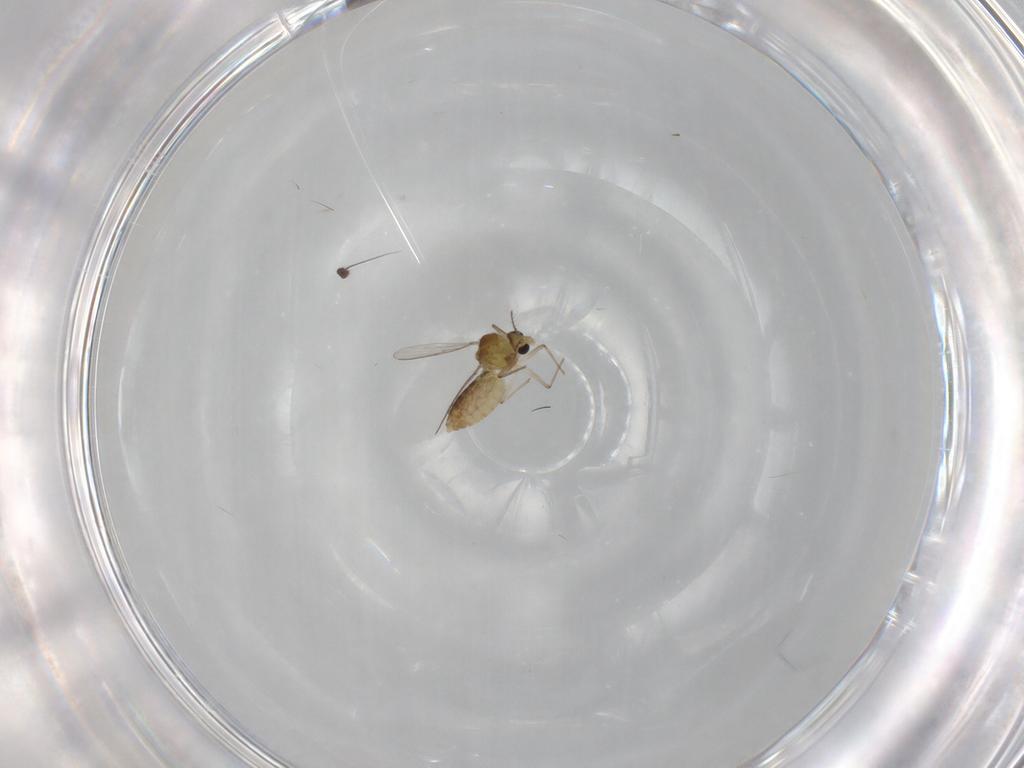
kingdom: Animalia
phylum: Arthropoda
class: Insecta
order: Diptera
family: Chironomidae
